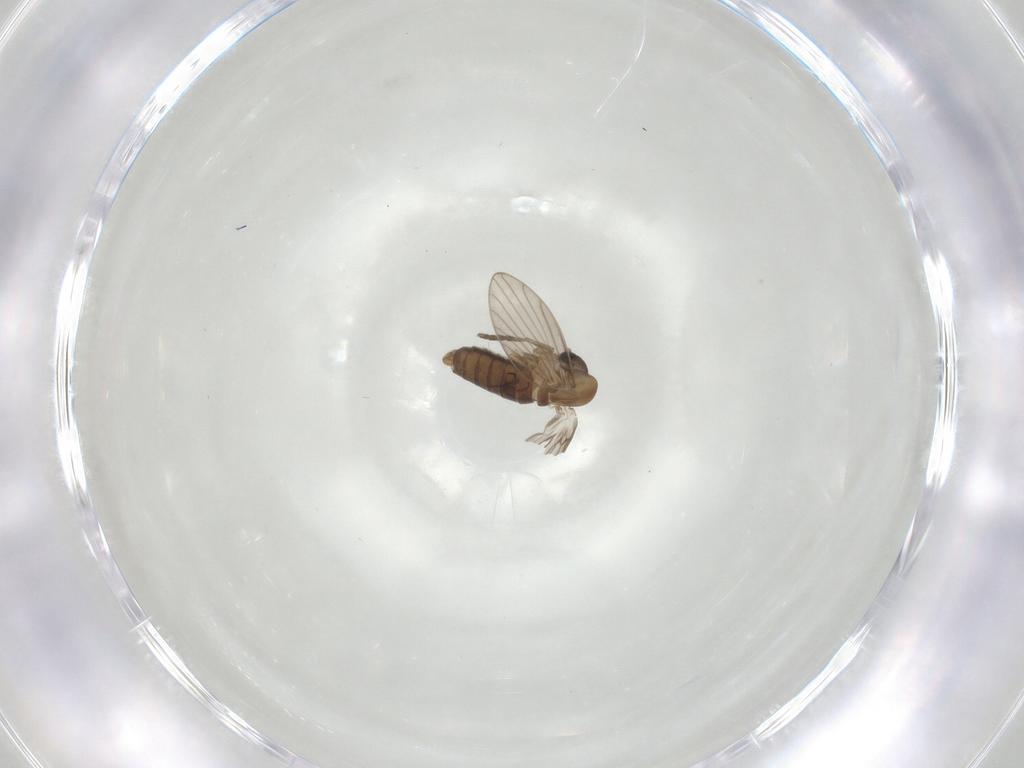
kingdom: Animalia
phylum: Arthropoda
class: Insecta
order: Diptera
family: Psychodidae
